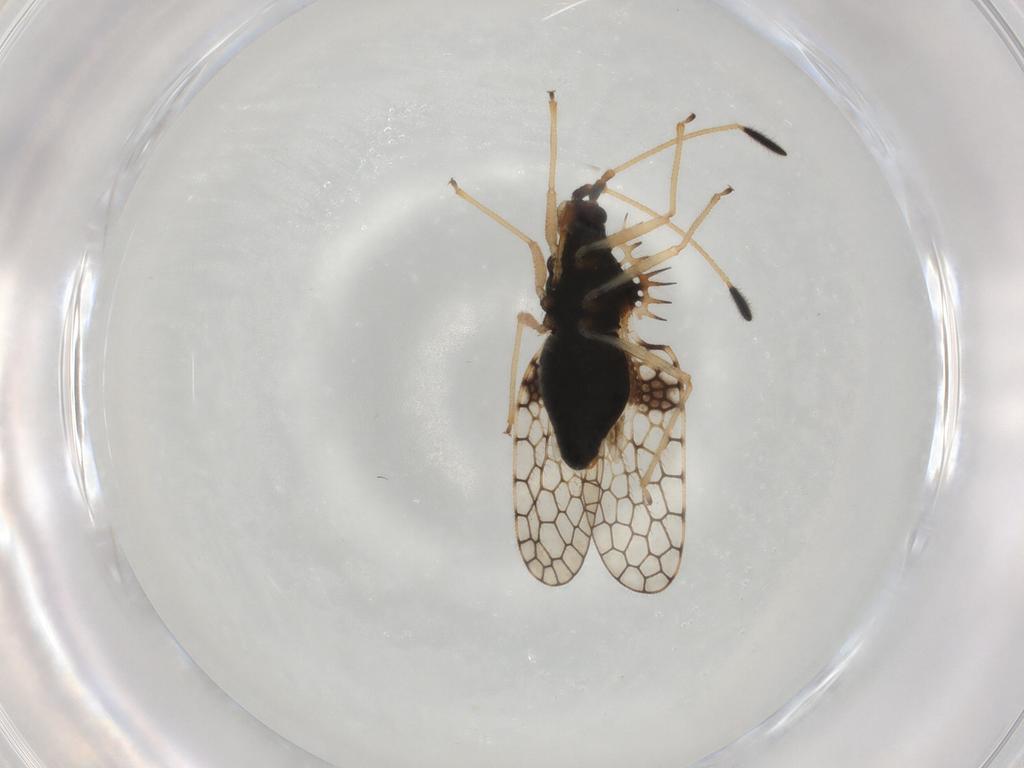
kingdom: Animalia
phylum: Arthropoda
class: Insecta
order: Hemiptera
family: Tingidae
